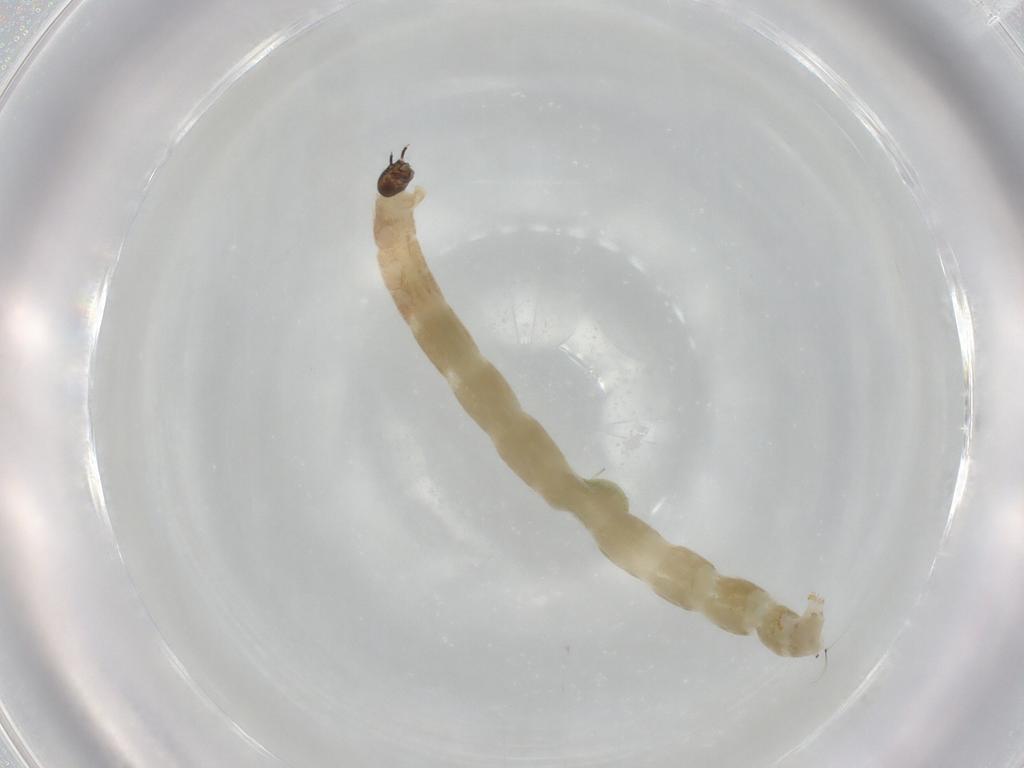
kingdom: Animalia
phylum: Arthropoda
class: Insecta
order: Diptera
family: Chironomidae
